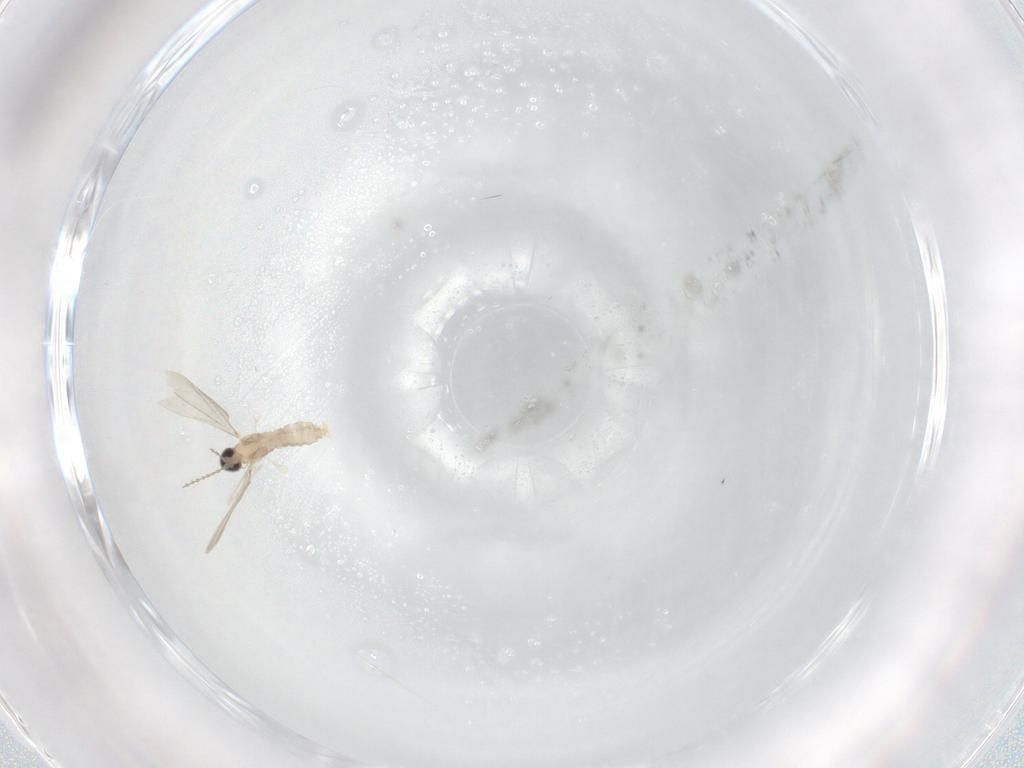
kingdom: Animalia
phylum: Arthropoda
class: Insecta
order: Diptera
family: Cecidomyiidae
